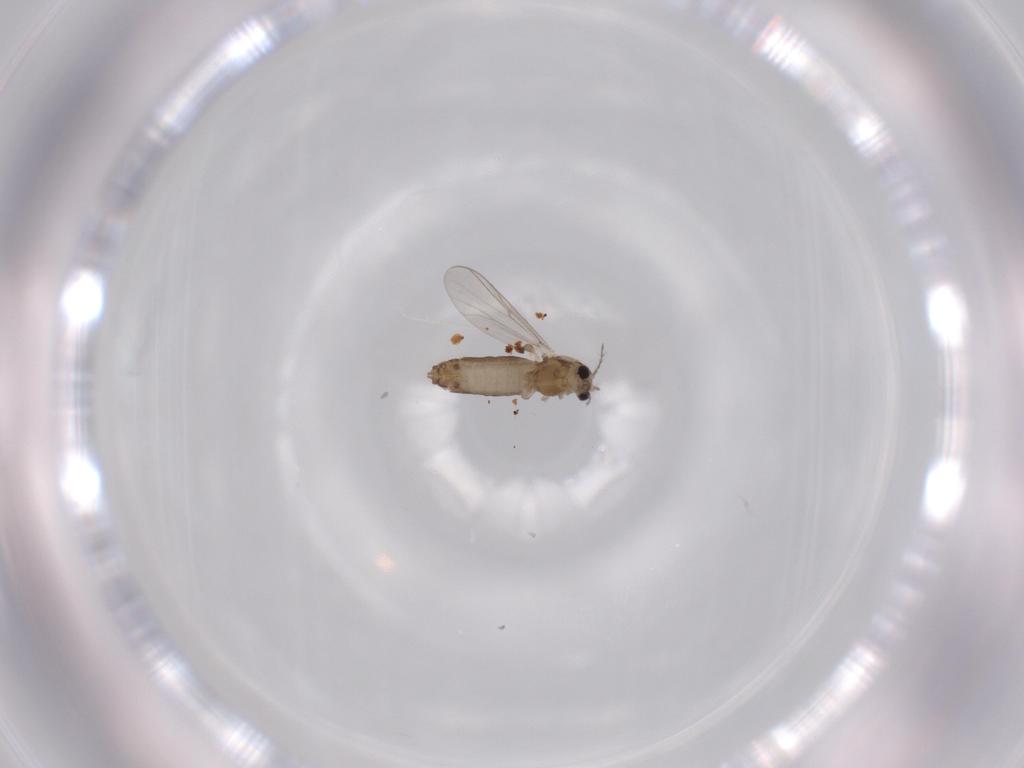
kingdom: Animalia
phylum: Arthropoda
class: Insecta
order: Diptera
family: Chironomidae
